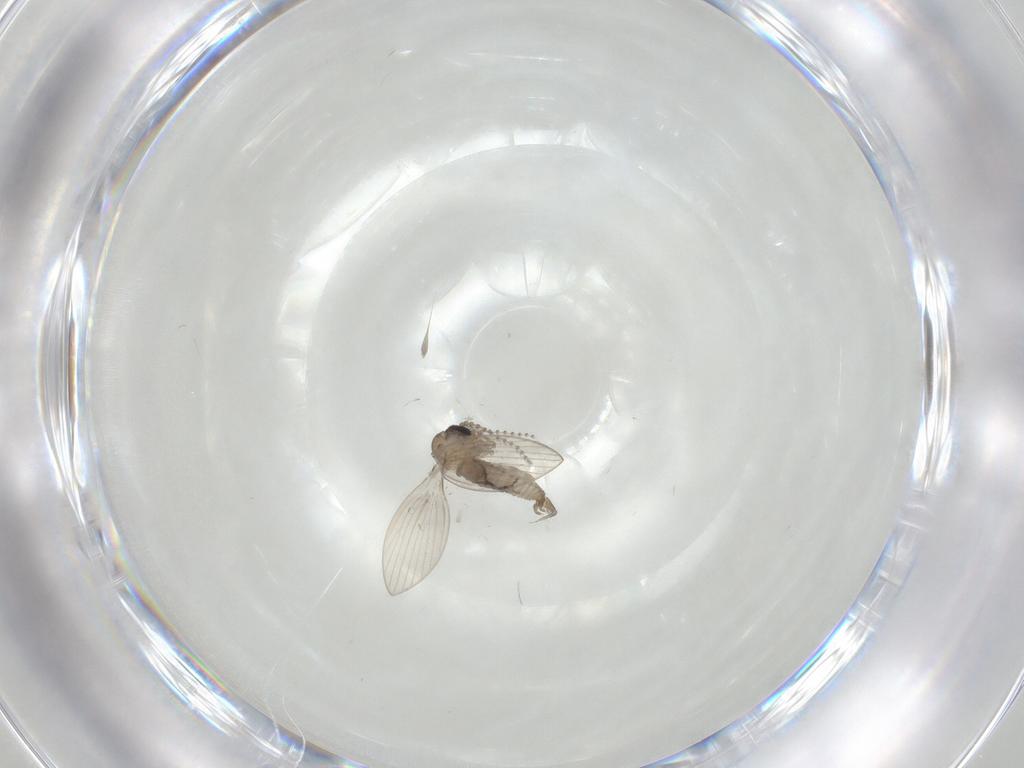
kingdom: Animalia
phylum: Arthropoda
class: Insecta
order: Diptera
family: Psychodidae
